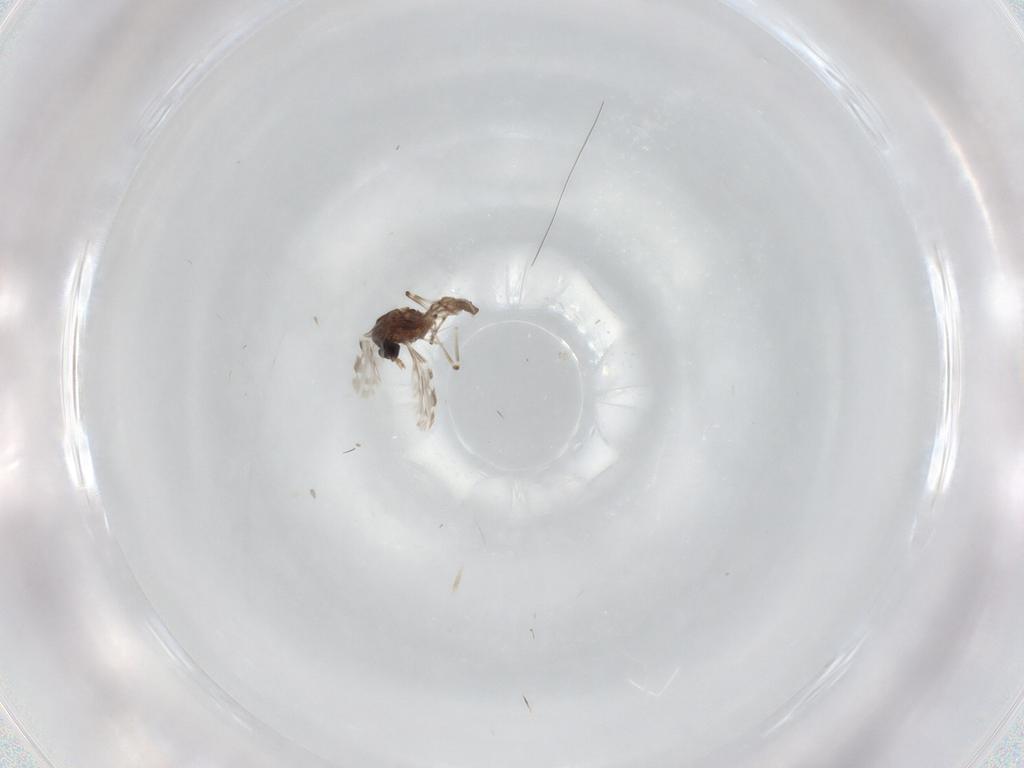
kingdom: Animalia
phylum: Arthropoda
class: Insecta
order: Diptera
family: Ceratopogonidae
